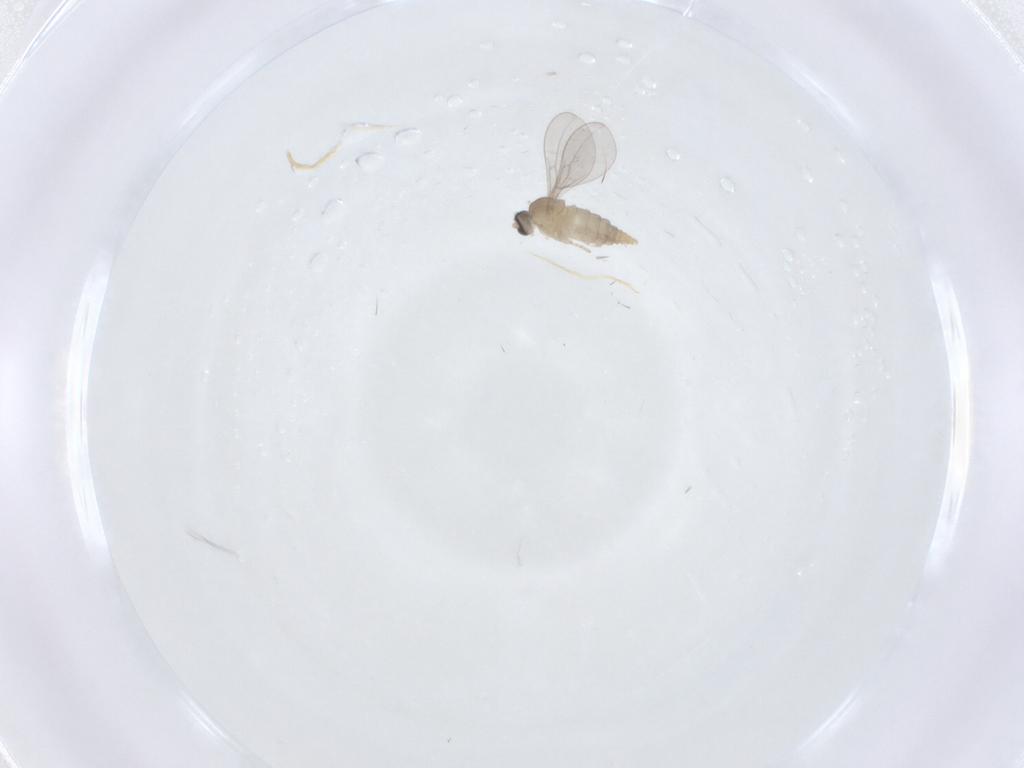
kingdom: Animalia
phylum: Arthropoda
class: Insecta
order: Diptera
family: Cecidomyiidae
